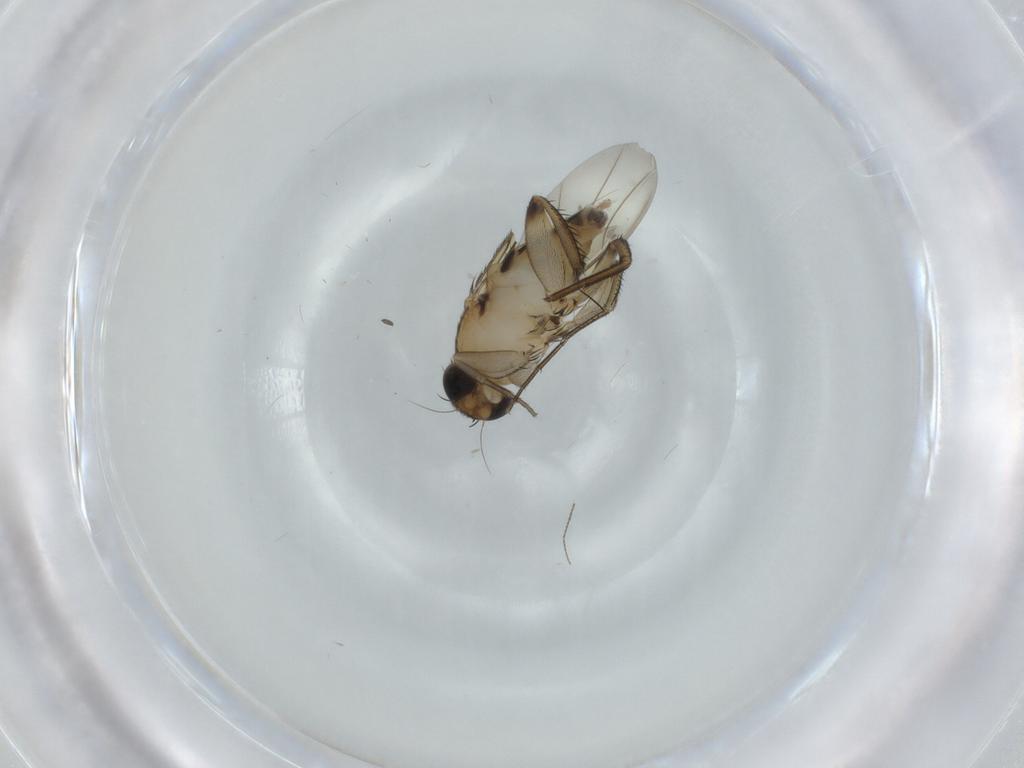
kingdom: Animalia
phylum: Arthropoda
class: Insecta
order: Diptera
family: Phoridae
